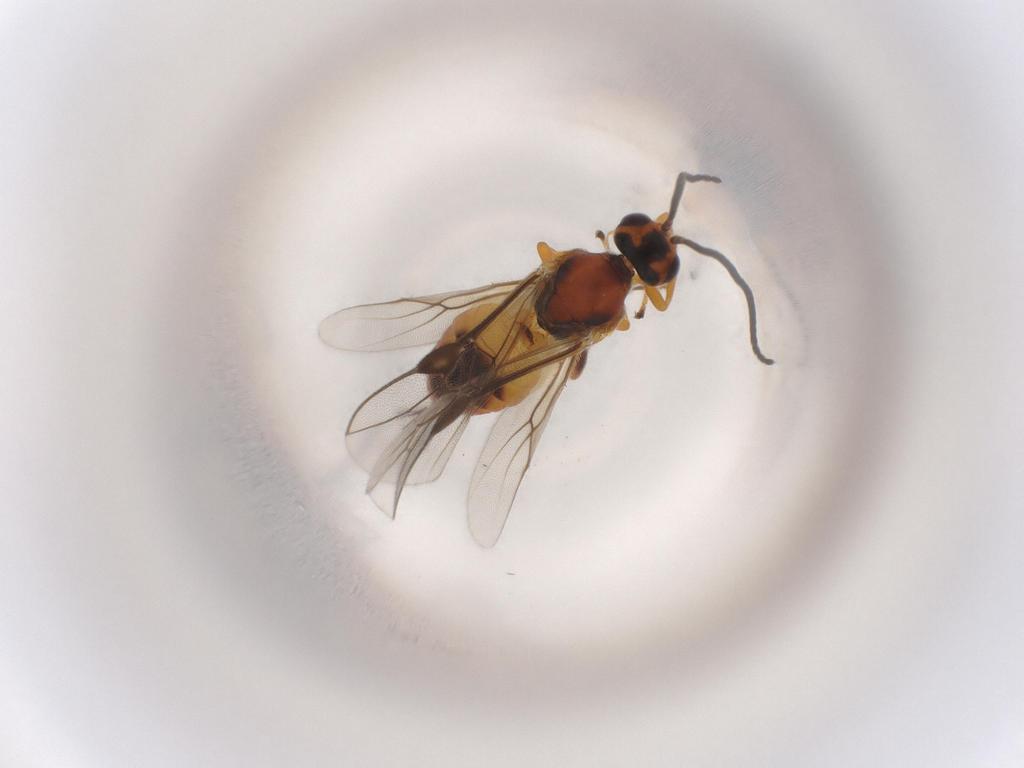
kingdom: Animalia
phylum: Arthropoda
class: Insecta
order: Hymenoptera
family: Braconidae
